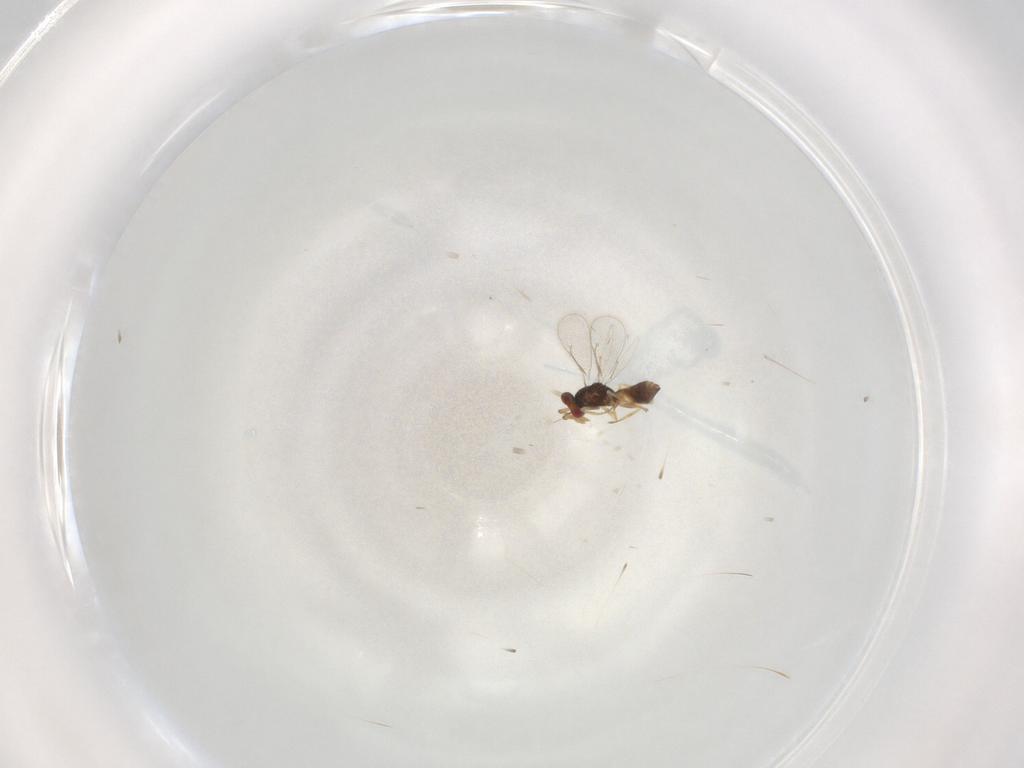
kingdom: Animalia
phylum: Arthropoda
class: Insecta
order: Hymenoptera
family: Eulophidae
